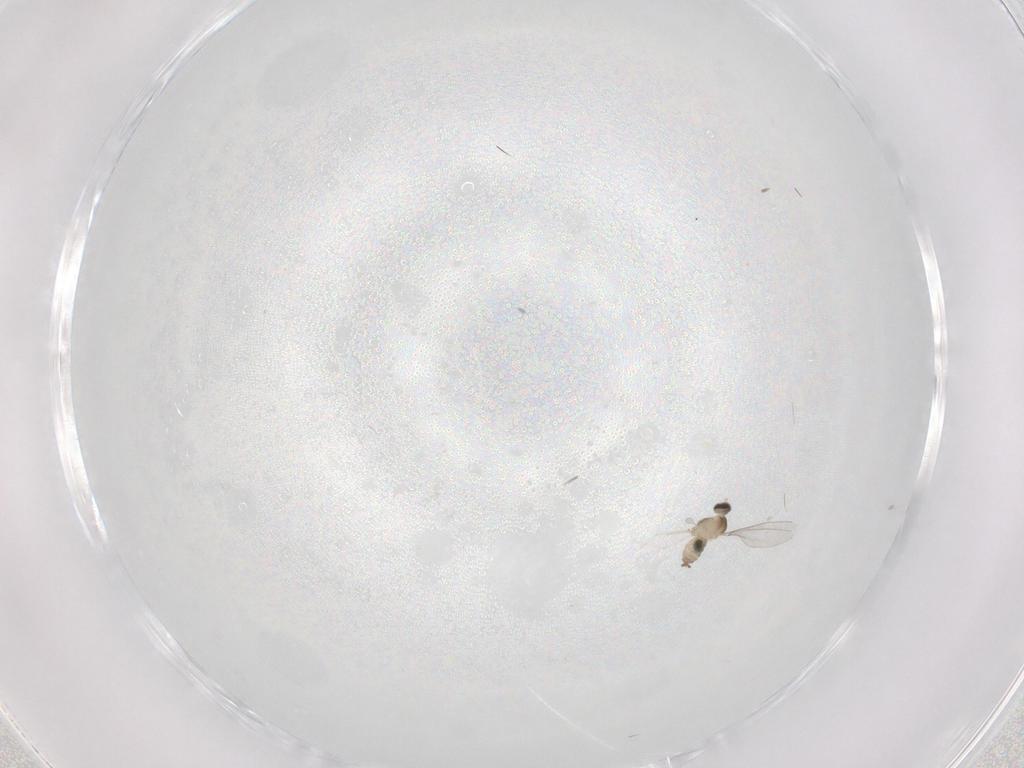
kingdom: Animalia
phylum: Arthropoda
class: Insecta
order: Diptera
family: Cecidomyiidae
